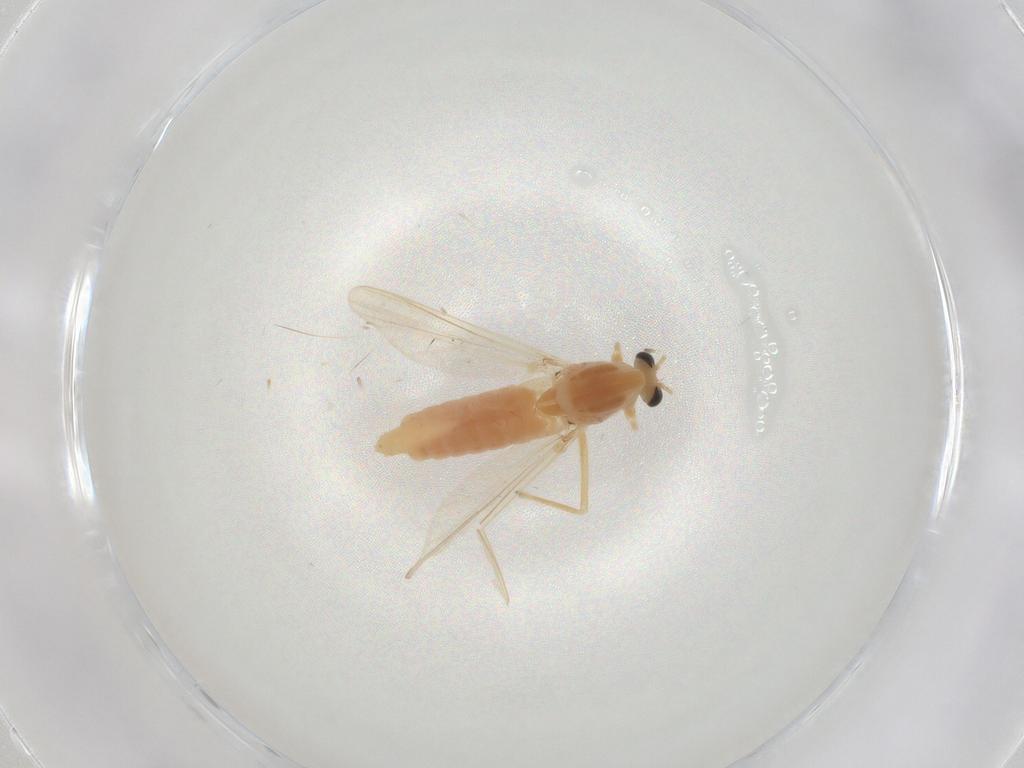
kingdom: Animalia
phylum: Arthropoda
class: Insecta
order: Diptera
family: Chironomidae
